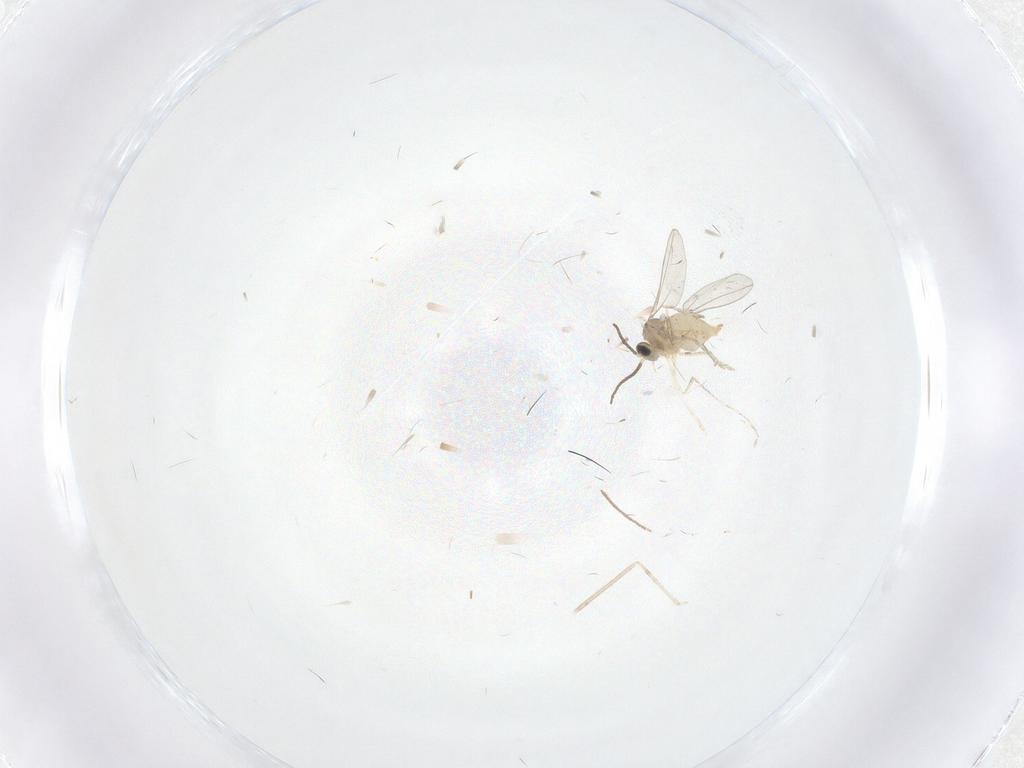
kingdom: Animalia
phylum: Arthropoda
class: Insecta
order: Diptera
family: Cecidomyiidae
